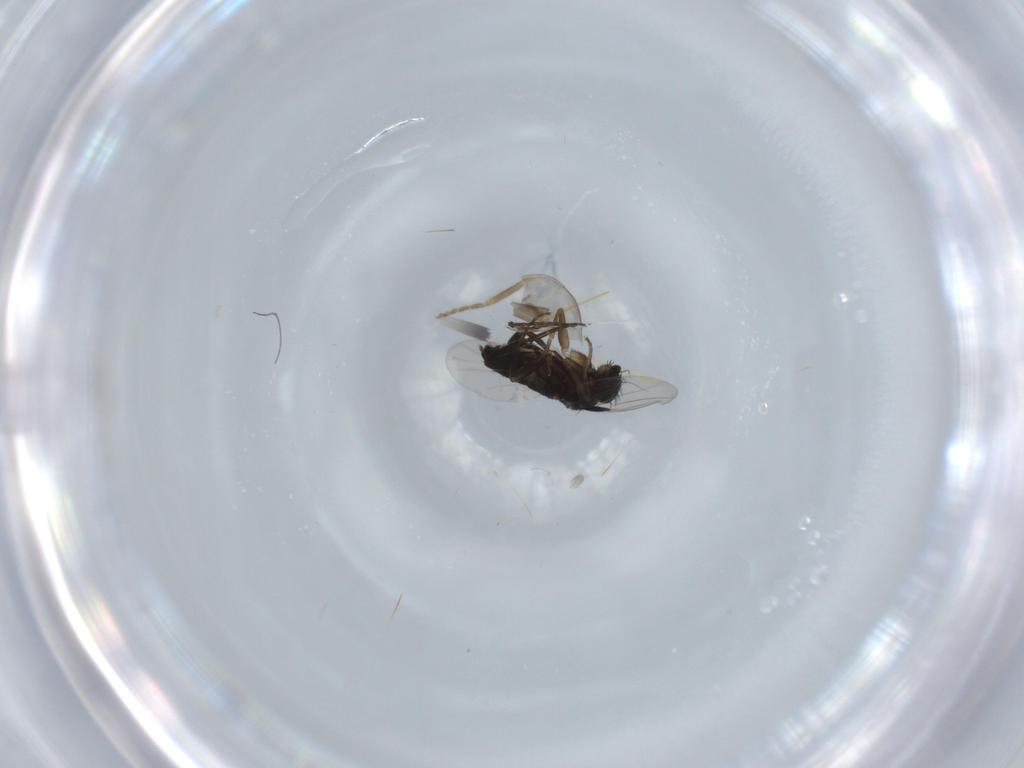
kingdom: Animalia
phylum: Arthropoda
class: Insecta
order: Diptera
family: Phoridae
